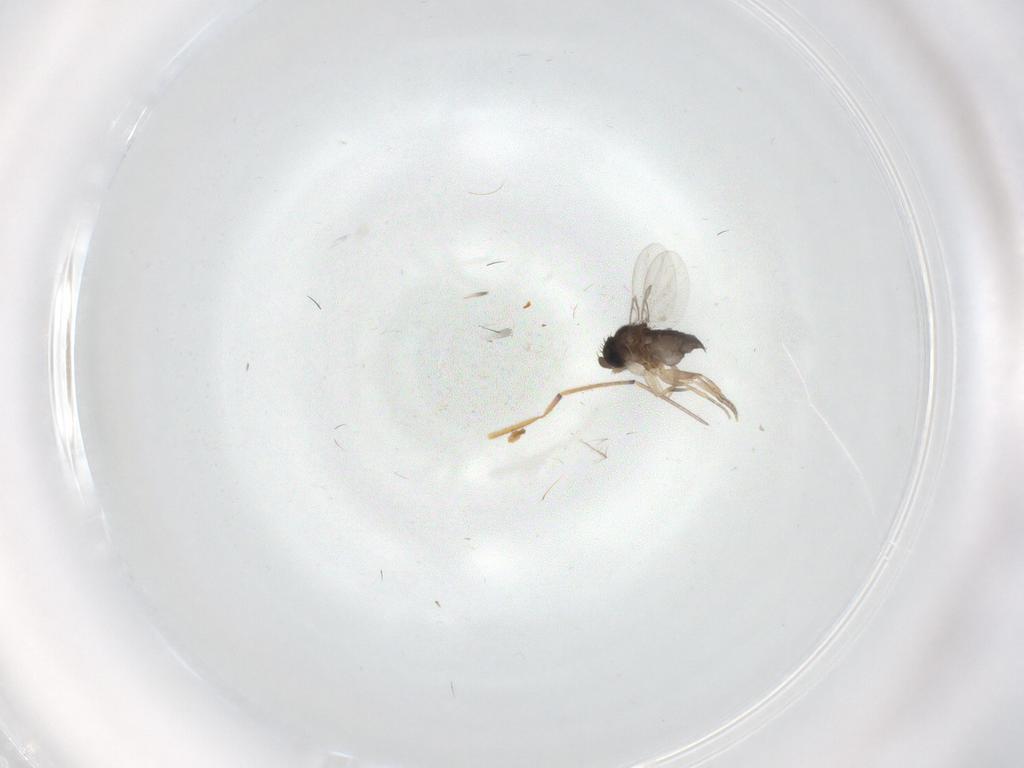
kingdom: Animalia
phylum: Arthropoda
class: Insecta
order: Diptera
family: Phoridae
